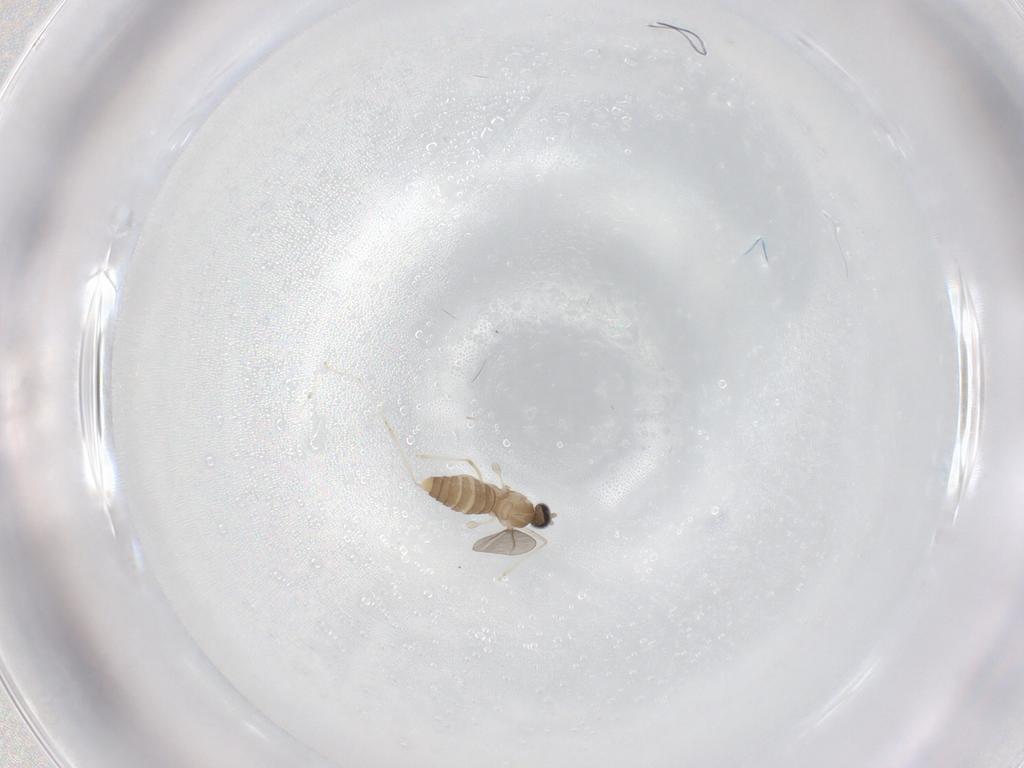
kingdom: Animalia
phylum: Arthropoda
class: Insecta
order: Diptera
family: Cecidomyiidae
